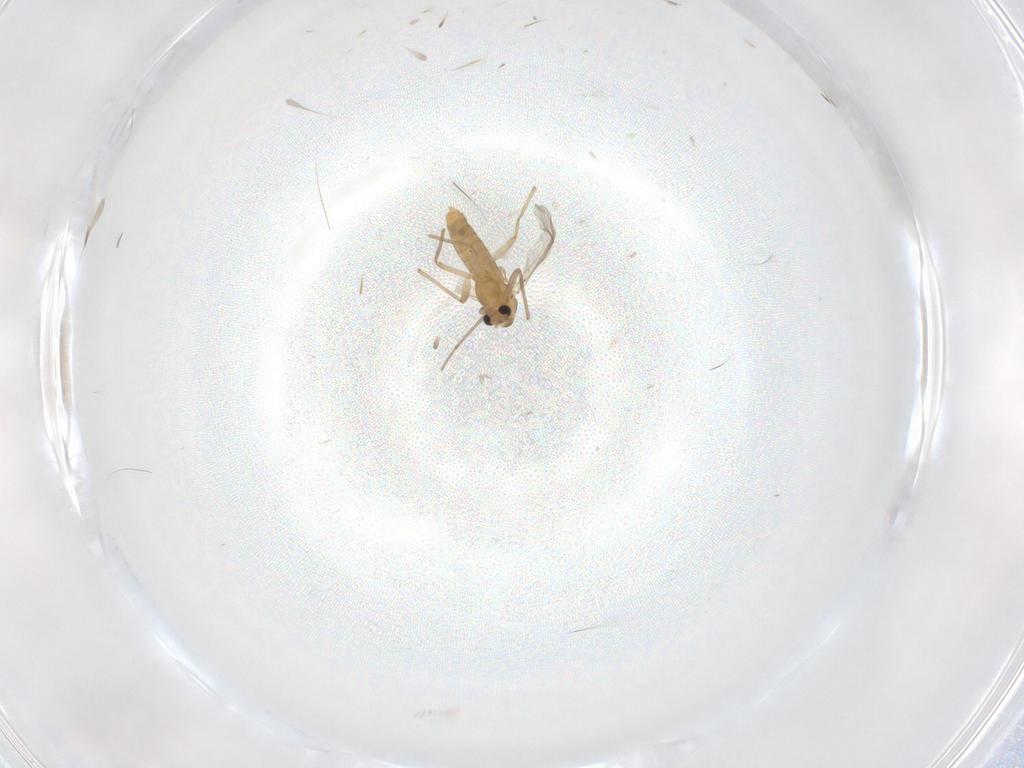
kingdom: Animalia
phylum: Arthropoda
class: Insecta
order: Diptera
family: Chironomidae
